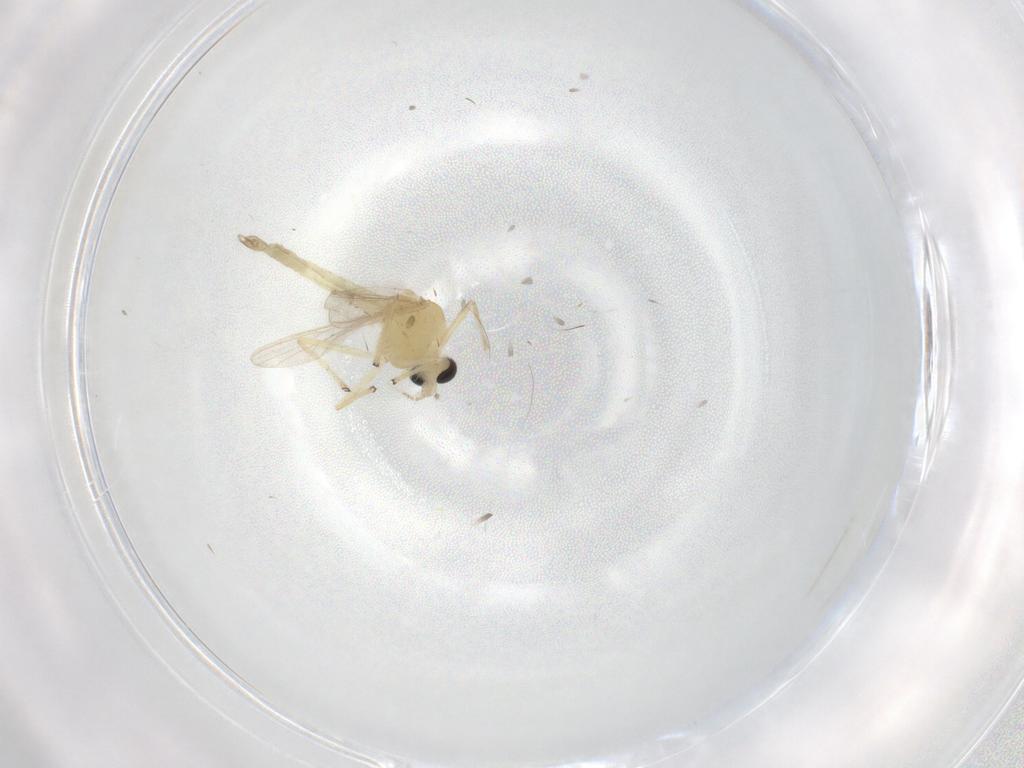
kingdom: Animalia
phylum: Arthropoda
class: Insecta
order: Diptera
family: Chironomidae
